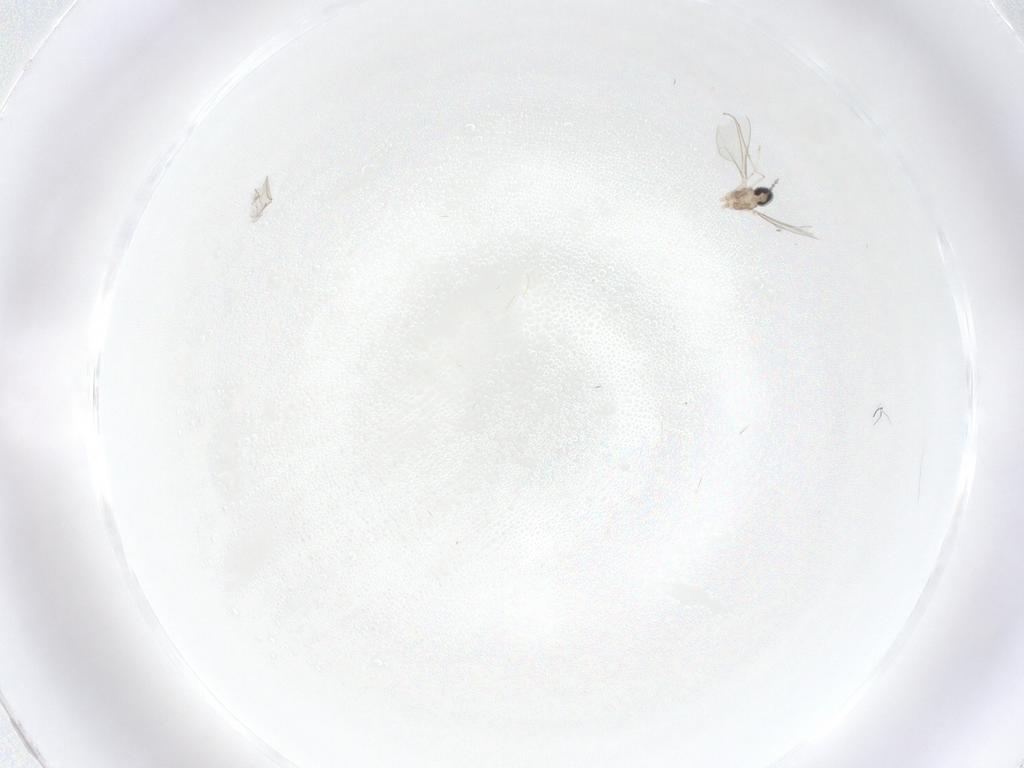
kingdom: Animalia
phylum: Arthropoda
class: Insecta
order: Diptera
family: Cecidomyiidae
